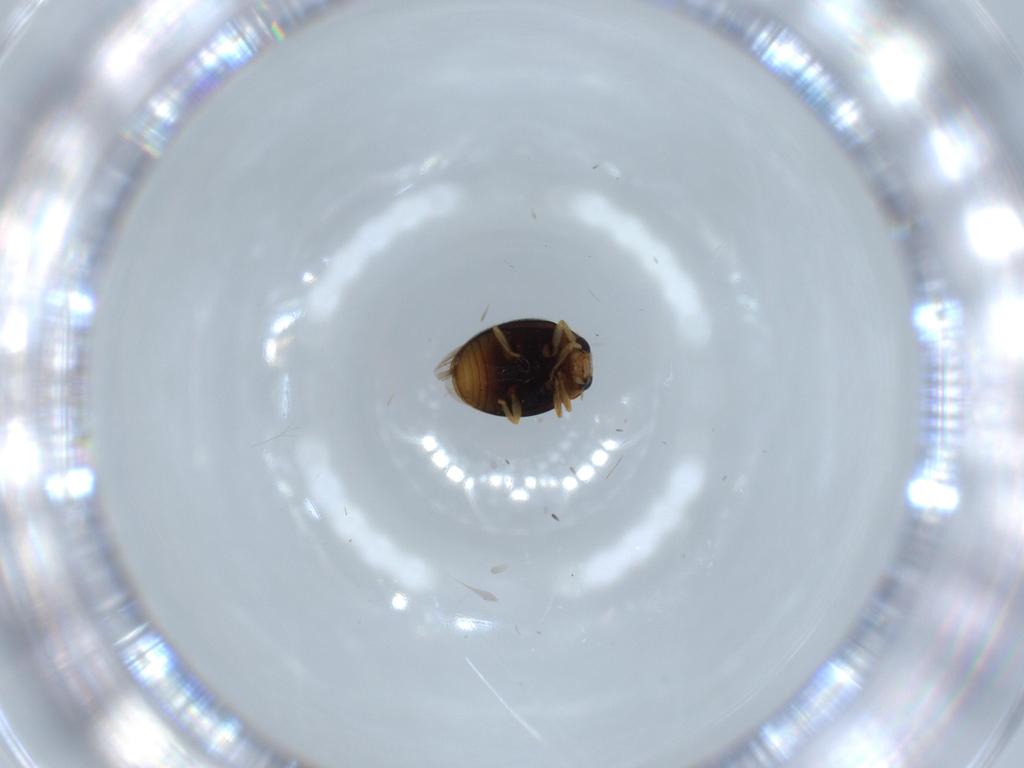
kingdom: Animalia
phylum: Arthropoda
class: Insecta
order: Coleoptera
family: Coccinellidae
